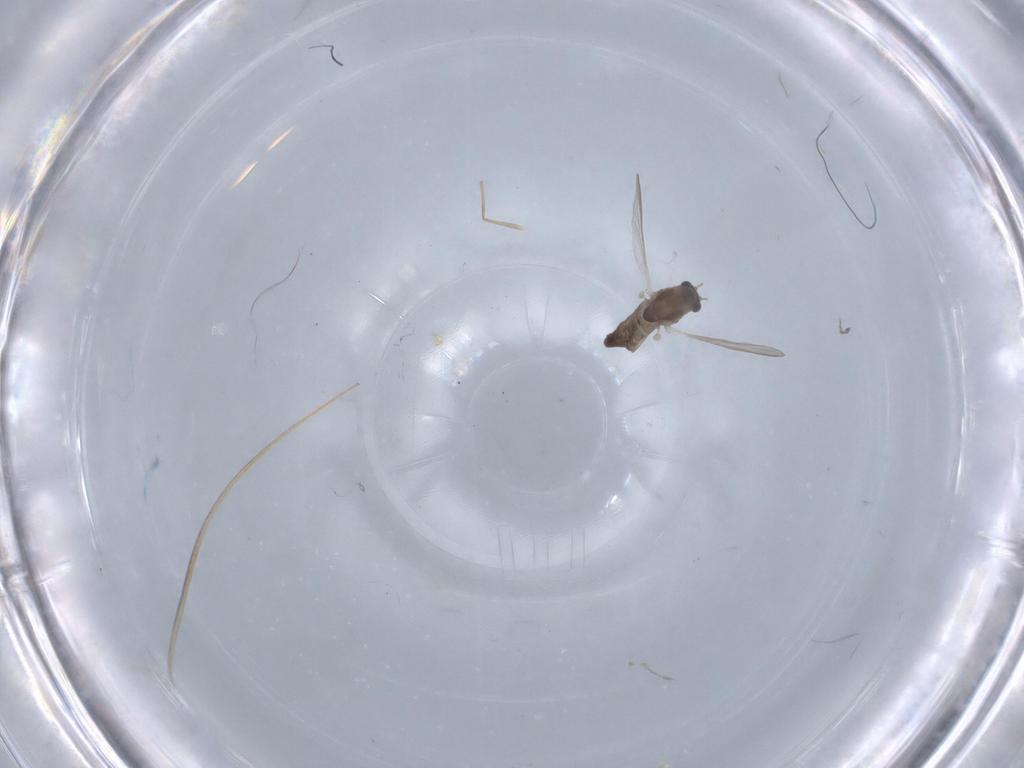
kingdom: Animalia
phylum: Arthropoda
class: Insecta
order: Diptera
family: Chironomidae
